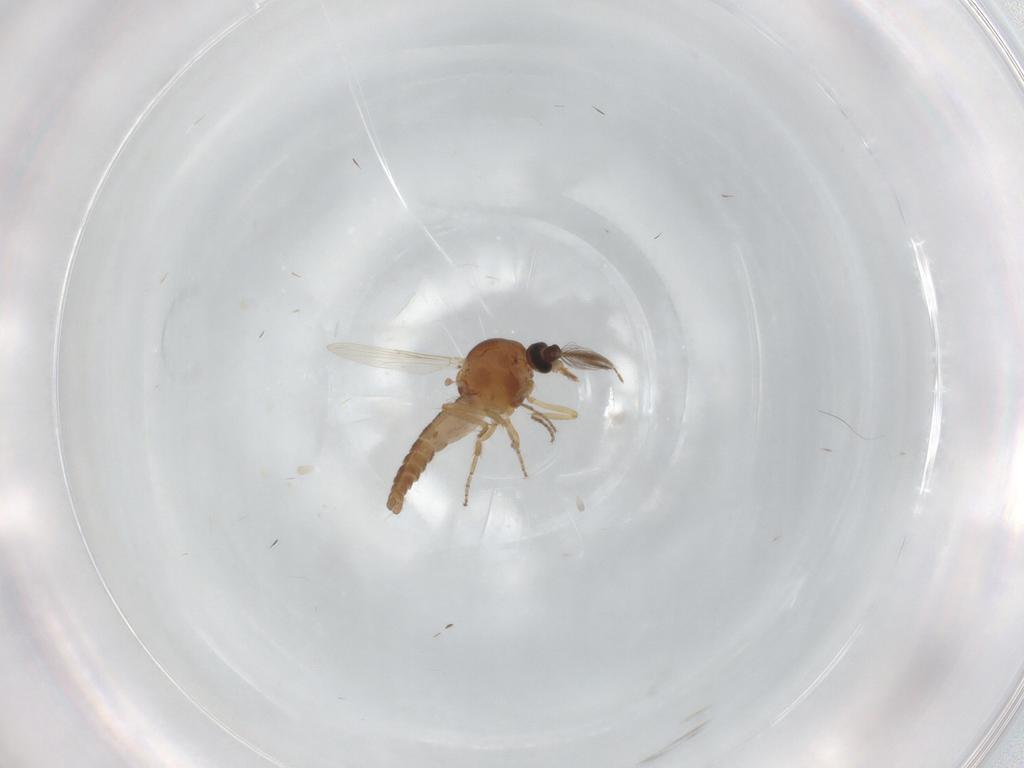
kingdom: Animalia
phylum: Arthropoda
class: Insecta
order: Diptera
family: Ceratopogonidae
